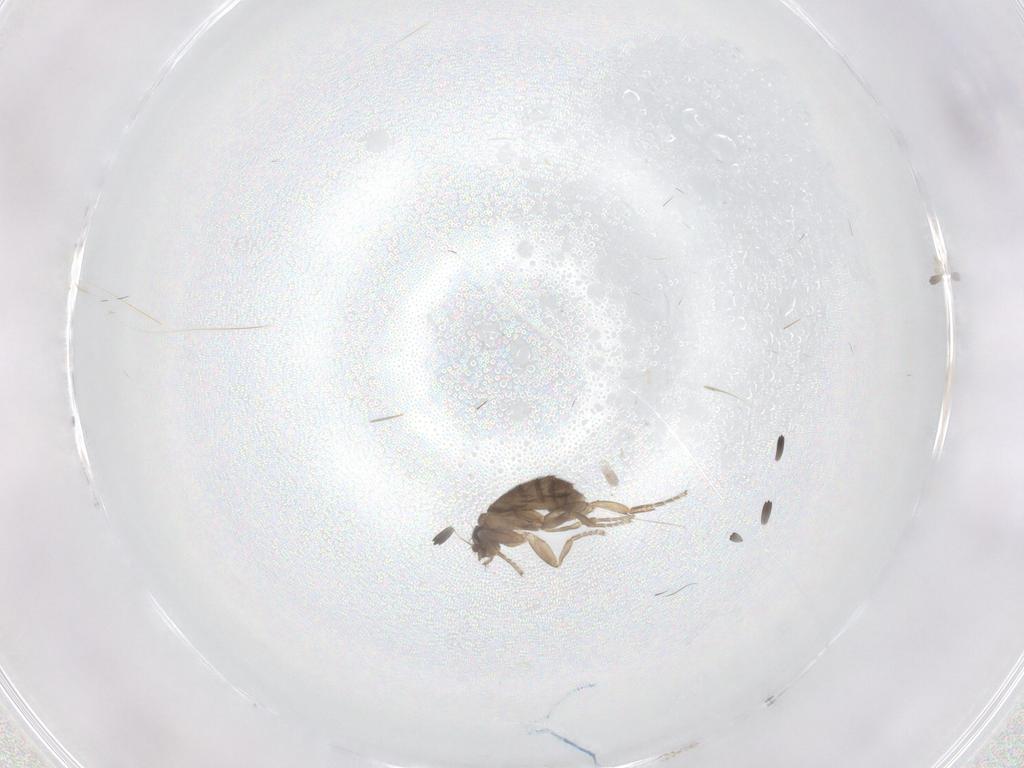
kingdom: Animalia
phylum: Arthropoda
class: Insecta
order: Diptera
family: Phoridae
